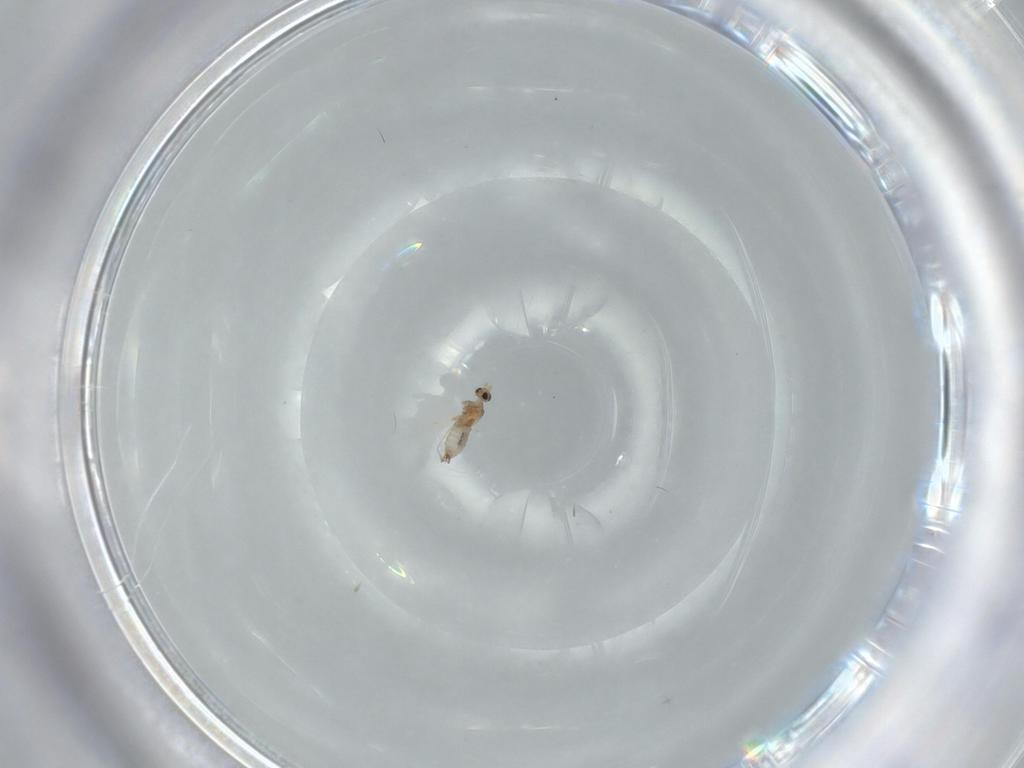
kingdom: Animalia
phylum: Arthropoda
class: Insecta
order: Diptera
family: Cecidomyiidae
